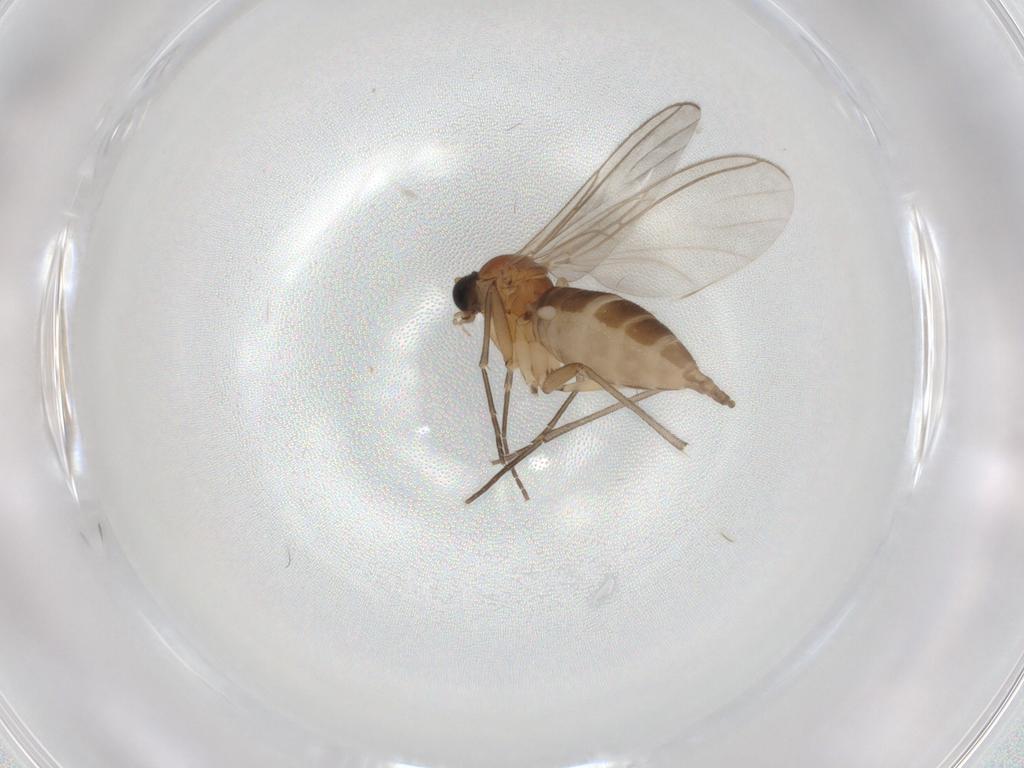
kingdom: Animalia
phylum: Arthropoda
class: Insecta
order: Diptera
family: Sciaridae
